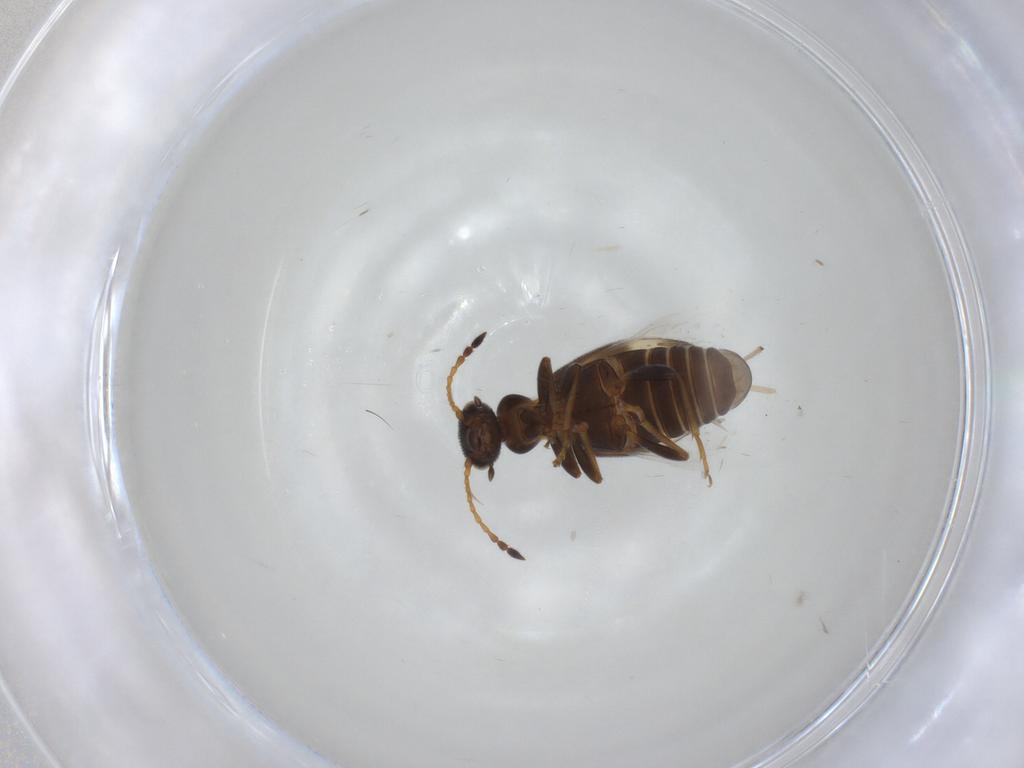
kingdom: Animalia
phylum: Arthropoda
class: Insecta
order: Coleoptera
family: Anthicidae
